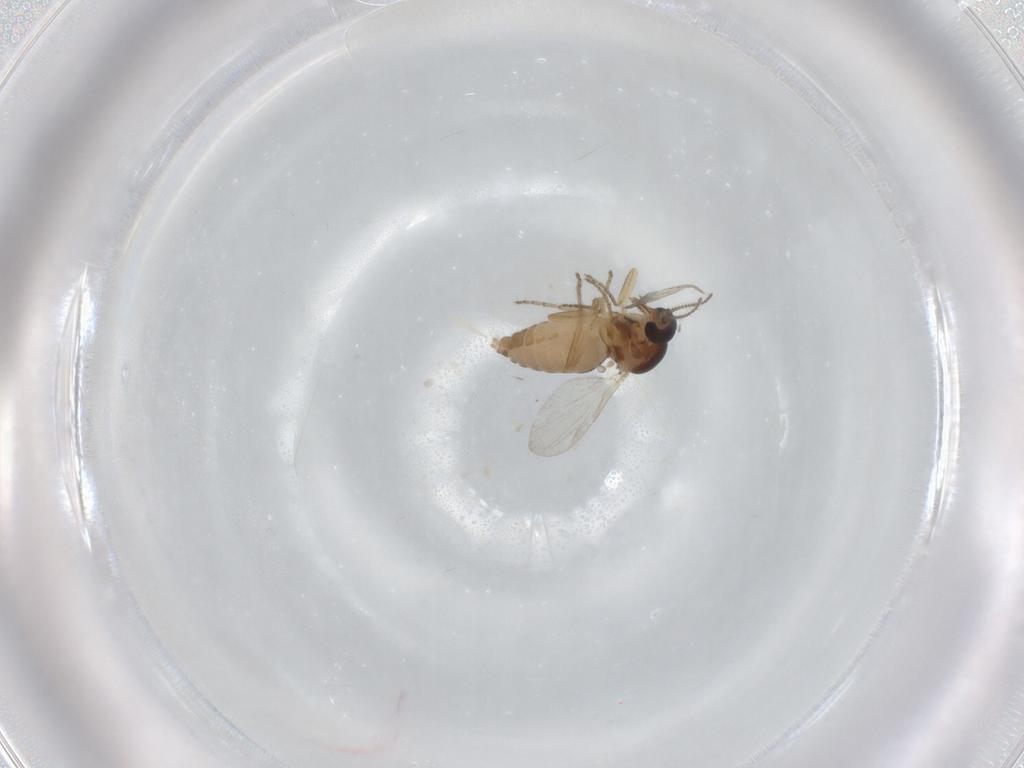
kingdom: Animalia
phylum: Arthropoda
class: Insecta
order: Diptera
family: Ceratopogonidae
